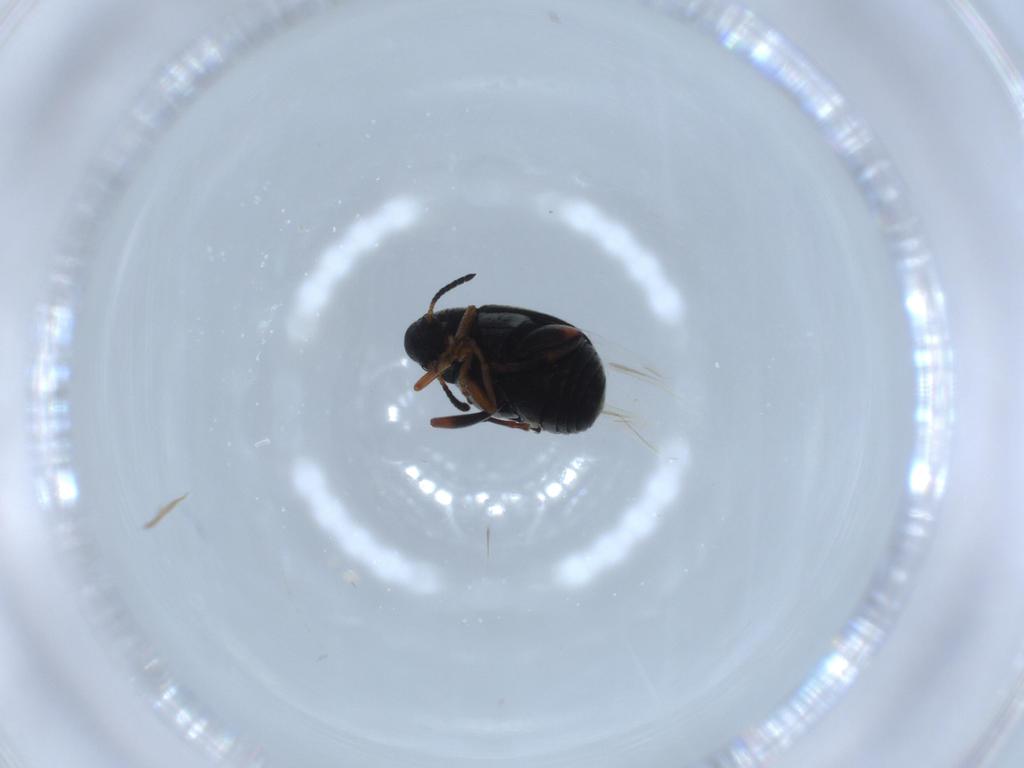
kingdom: Animalia
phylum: Arthropoda
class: Insecta
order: Coleoptera
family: Chrysomelidae
